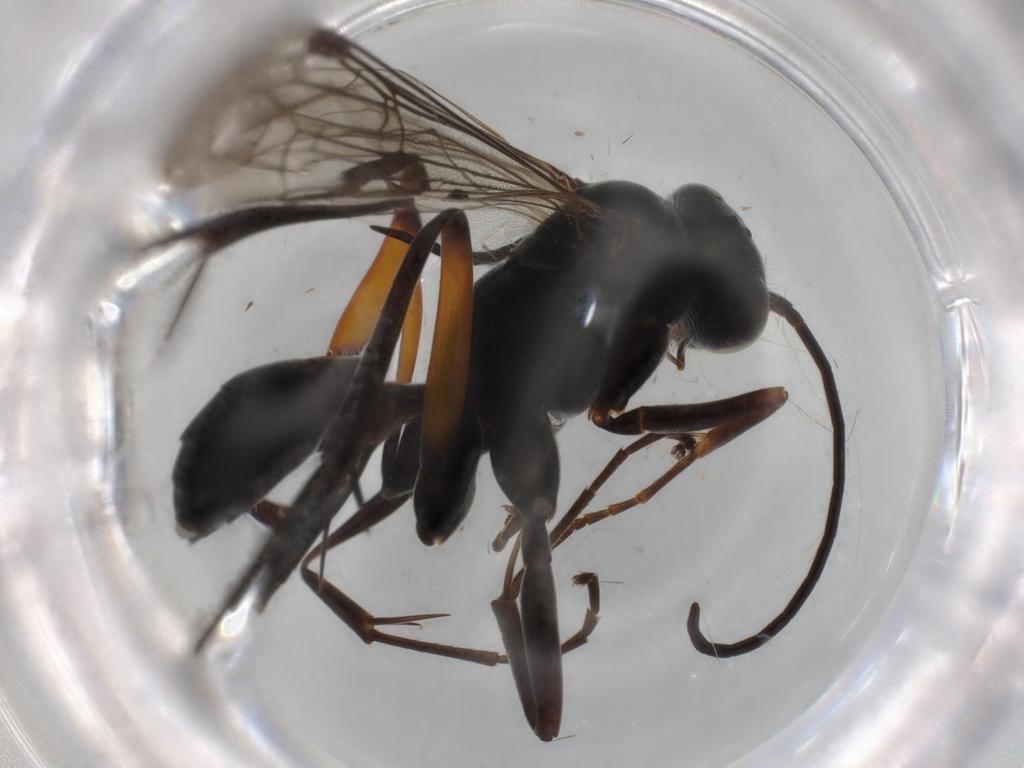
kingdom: Animalia
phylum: Arthropoda
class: Insecta
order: Hymenoptera
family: Pompilidae
